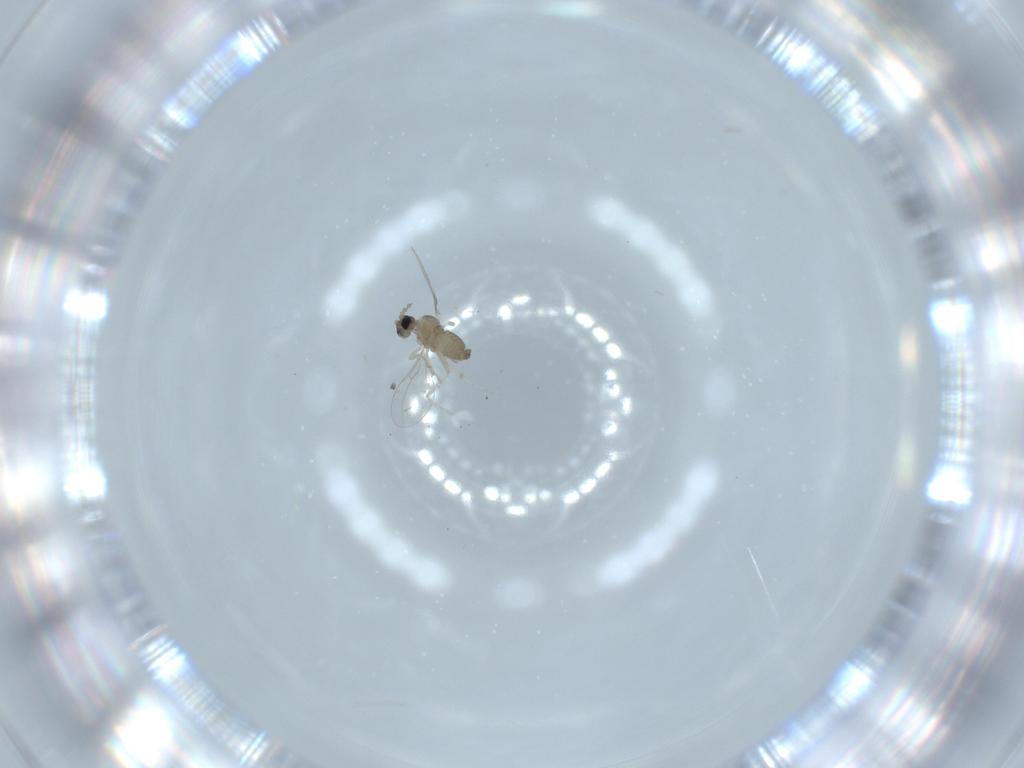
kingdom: Animalia
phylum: Arthropoda
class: Insecta
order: Diptera
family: Cecidomyiidae
